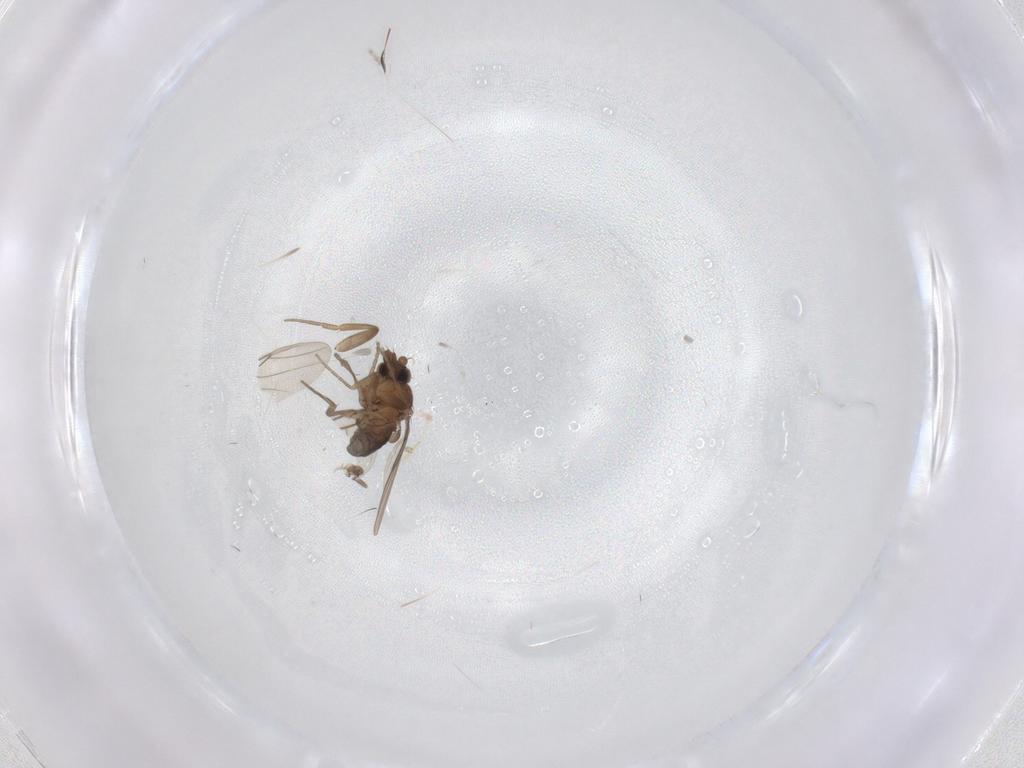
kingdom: Animalia
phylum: Arthropoda
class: Insecta
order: Diptera
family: Phoridae
